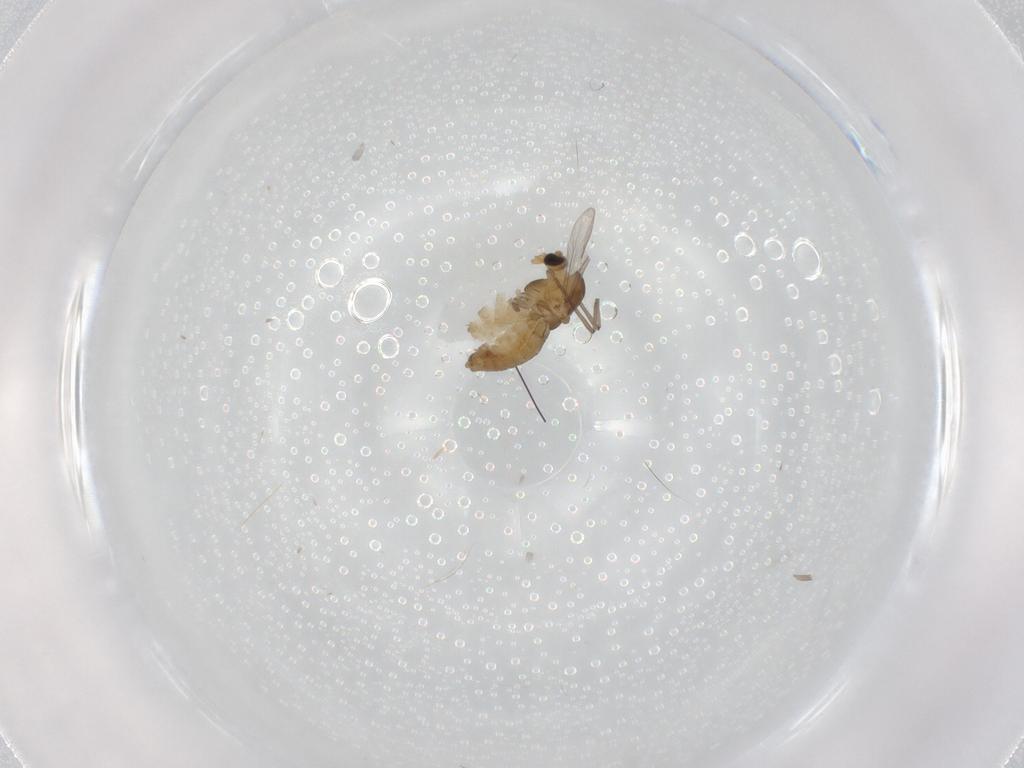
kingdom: Animalia
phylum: Arthropoda
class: Insecta
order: Diptera
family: Chironomidae
